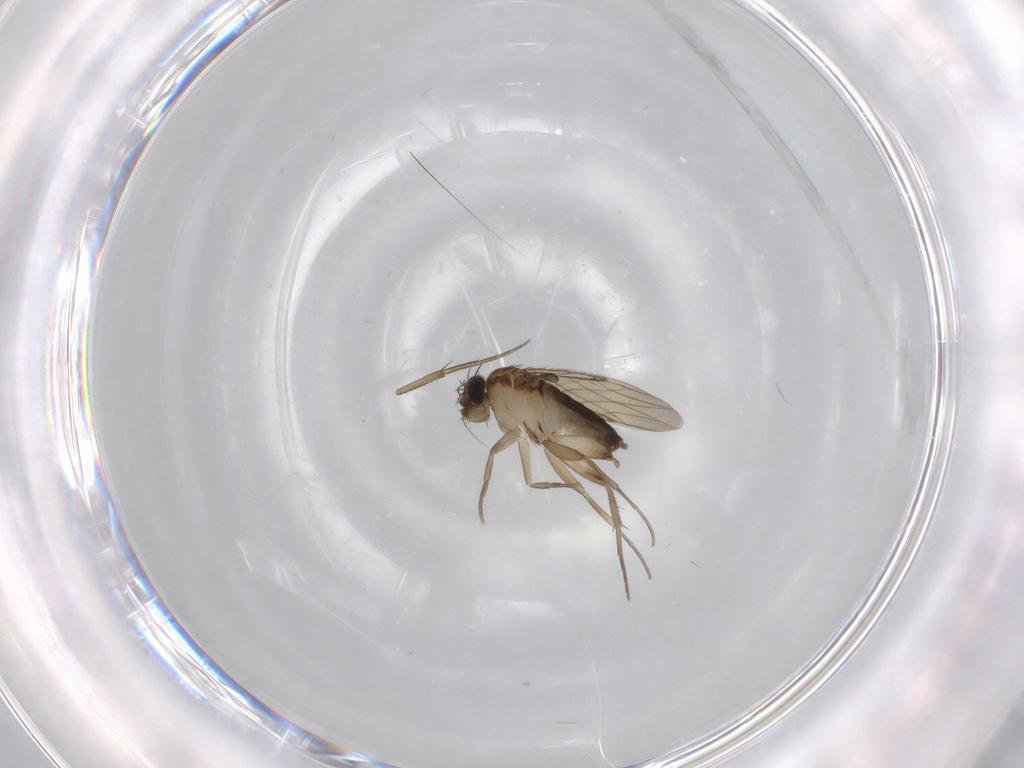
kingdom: Animalia
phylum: Arthropoda
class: Insecta
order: Diptera
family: Phoridae
